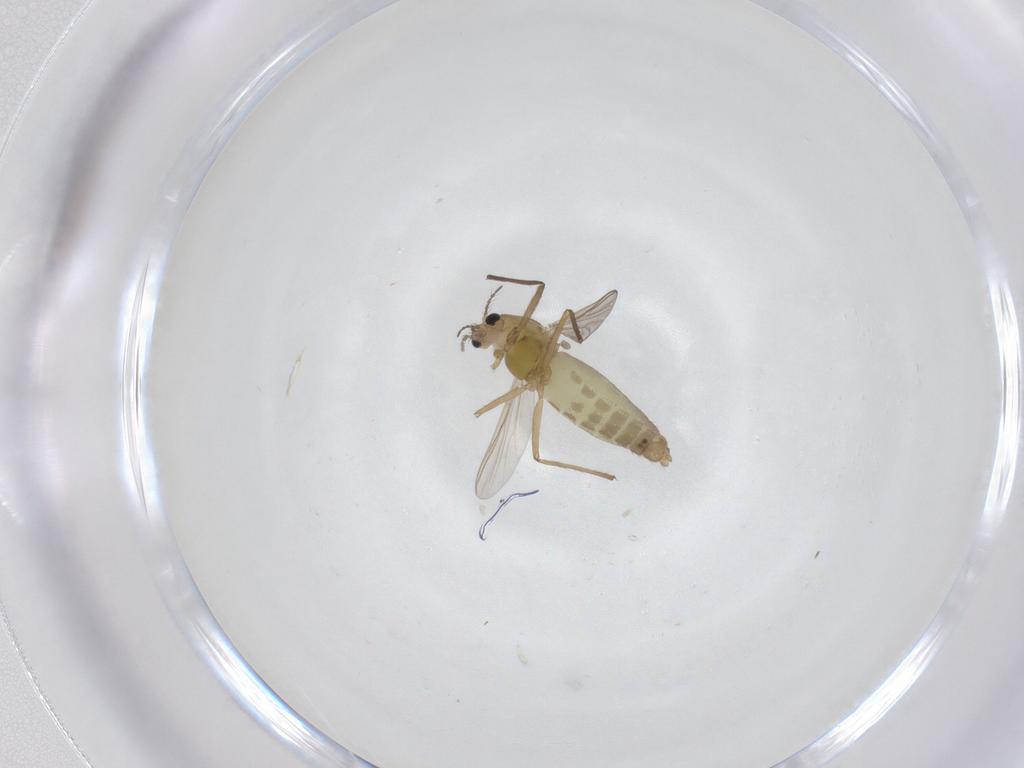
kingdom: Animalia
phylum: Arthropoda
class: Insecta
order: Diptera
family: Chironomidae
